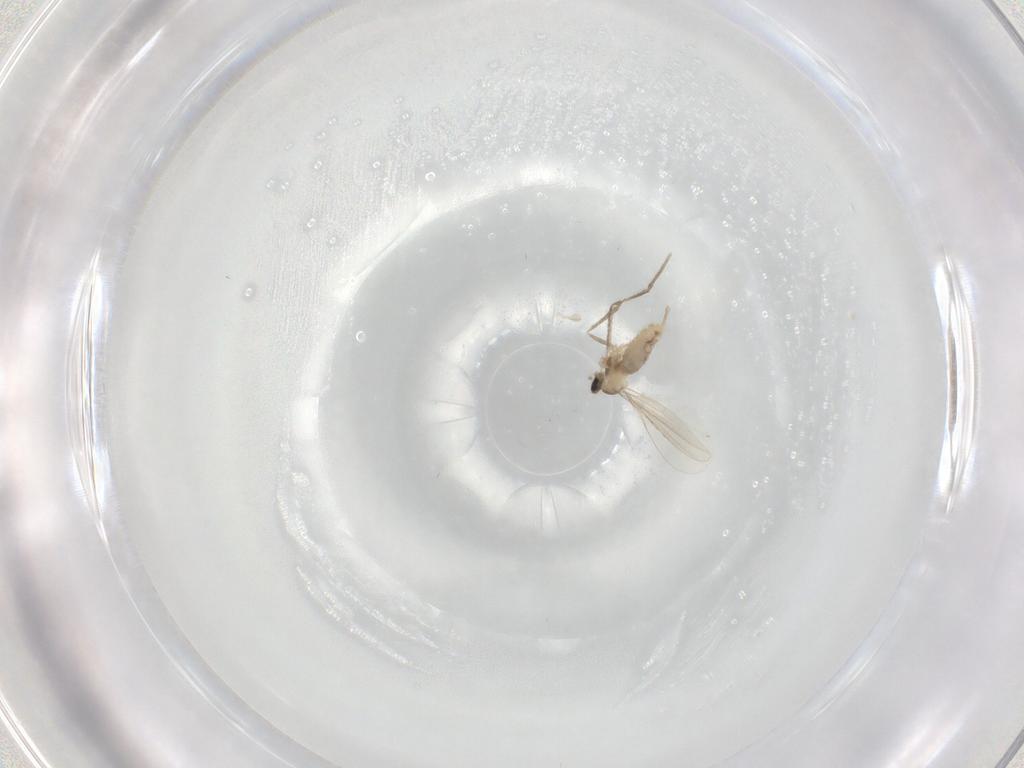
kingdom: Animalia
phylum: Arthropoda
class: Insecta
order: Diptera
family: Cecidomyiidae
